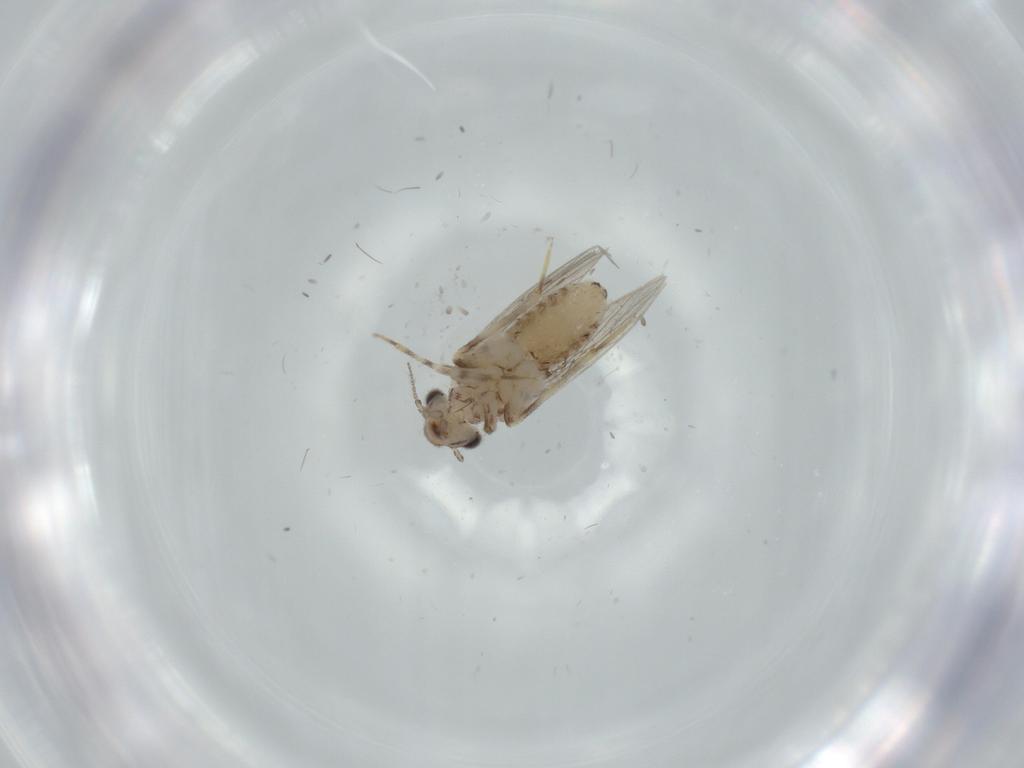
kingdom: Animalia
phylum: Arthropoda
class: Insecta
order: Psocodea
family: Lepidopsocidae
